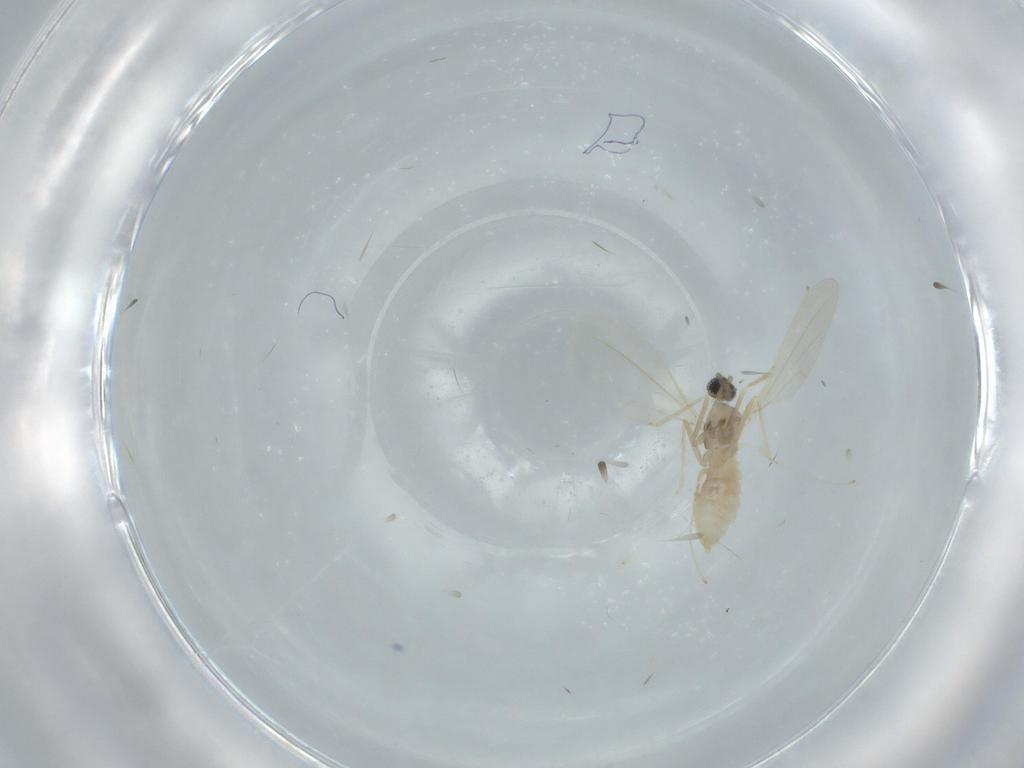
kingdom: Animalia
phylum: Arthropoda
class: Insecta
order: Diptera
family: Cecidomyiidae
